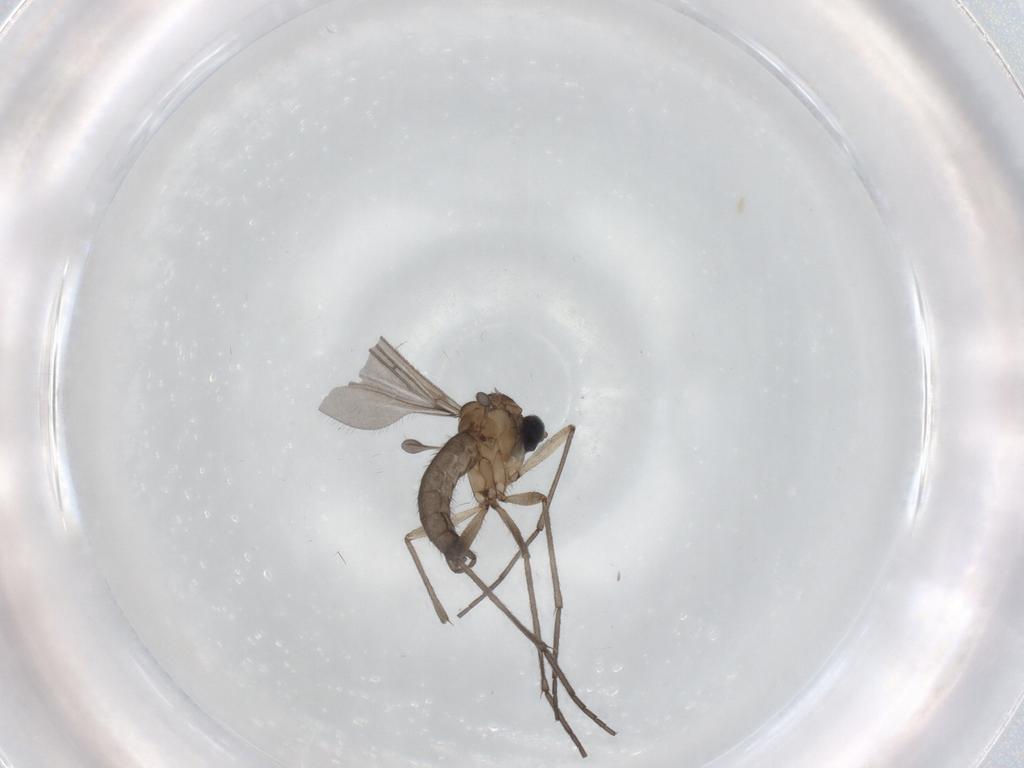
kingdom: Animalia
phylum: Arthropoda
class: Insecta
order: Diptera
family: Sciaridae
